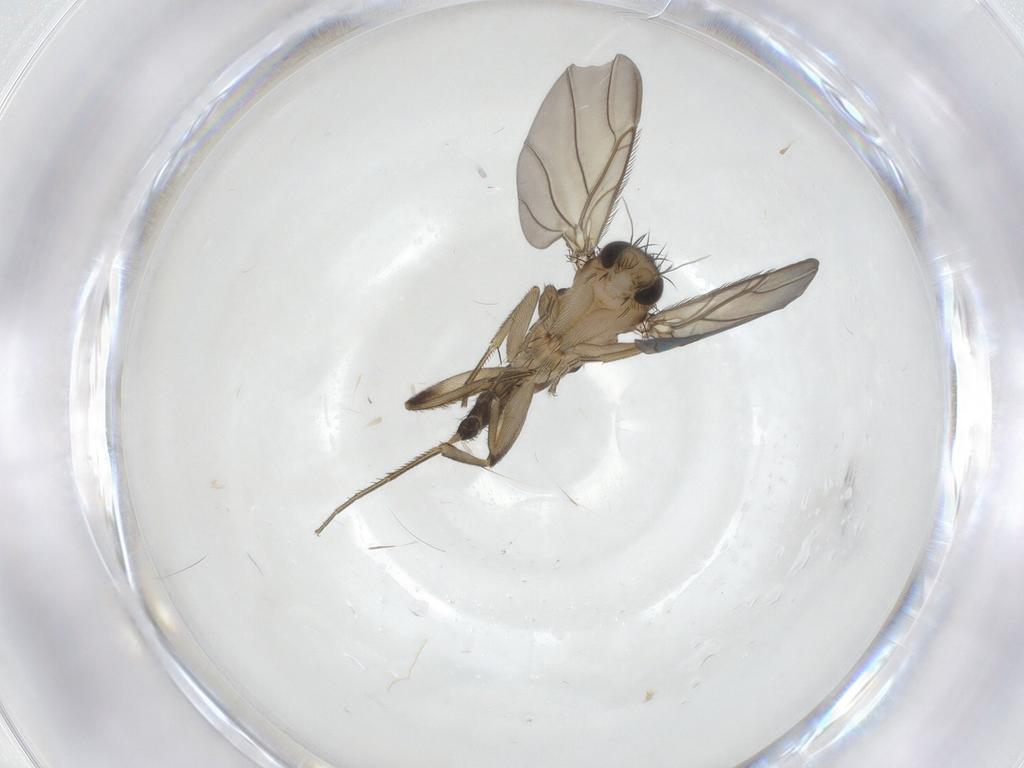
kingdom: Animalia
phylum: Arthropoda
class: Insecta
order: Diptera
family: Phoridae
